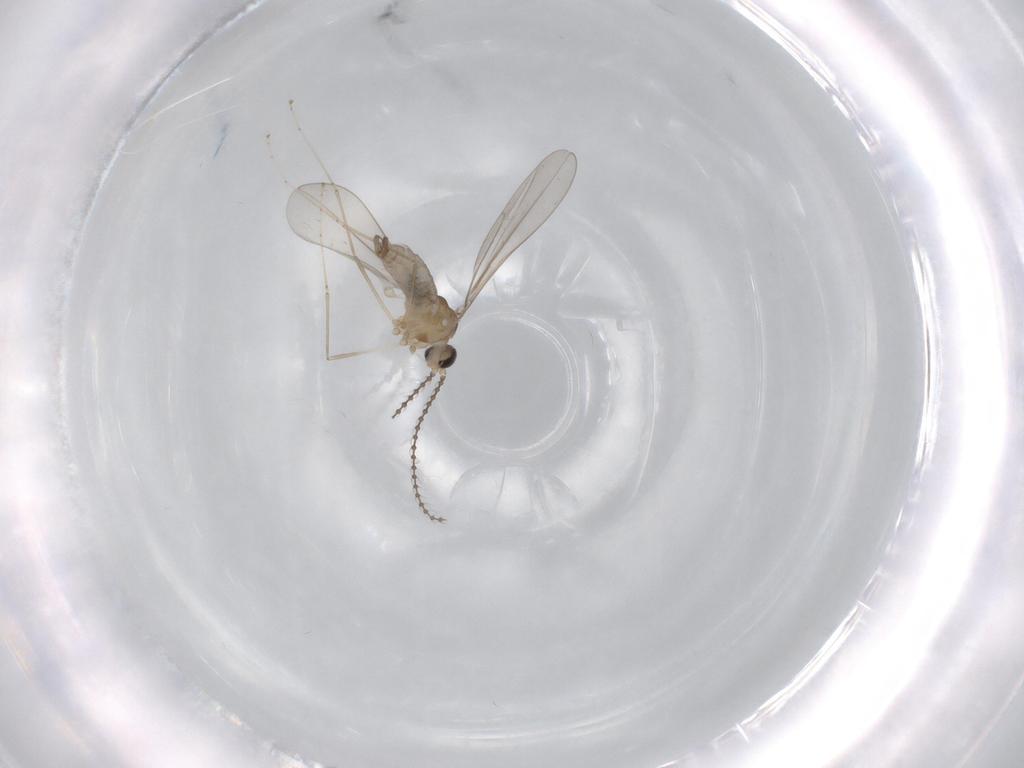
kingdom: Animalia
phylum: Arthropoda
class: Insecta
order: Diptera
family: Cecidomyiidae
